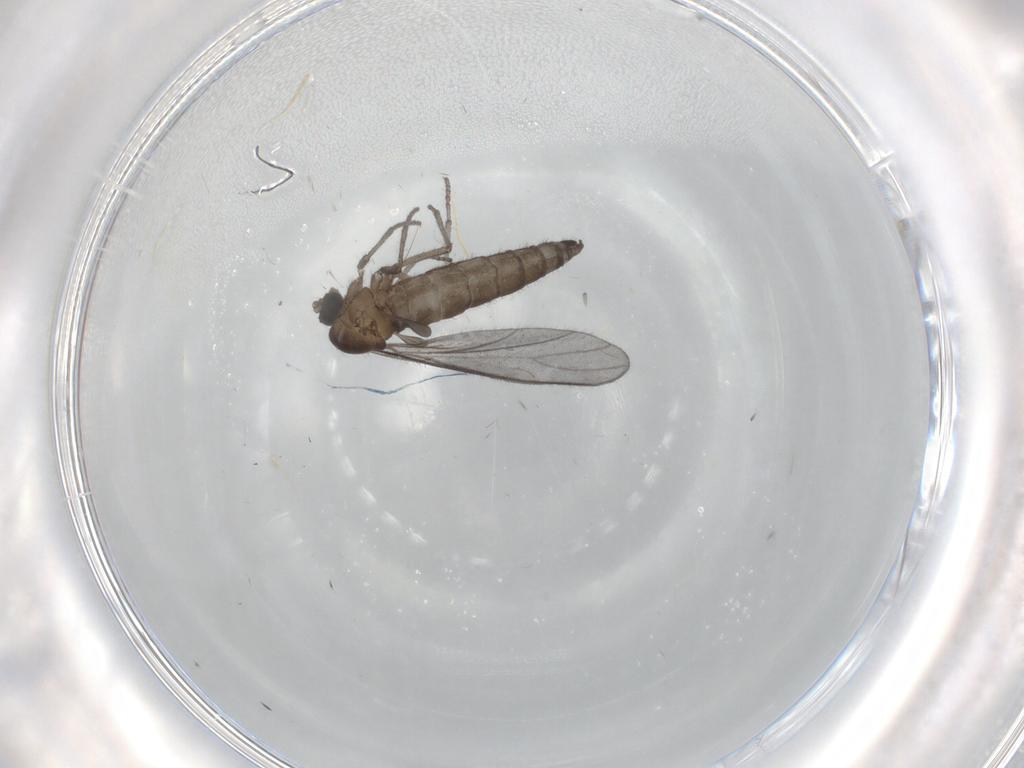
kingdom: Animalia
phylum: Arthropoda
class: Insecta
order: Diptera
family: Sciaridae
